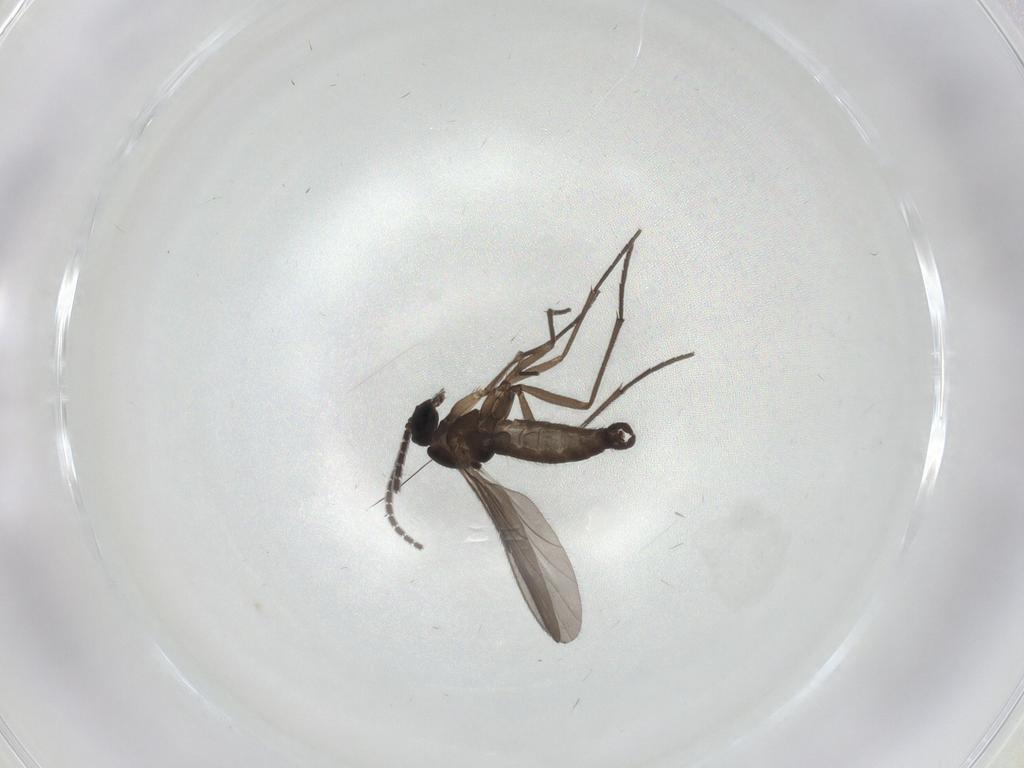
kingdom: Animalia
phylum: Arthropoda
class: Insecta
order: Diptera
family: Sciaridae
